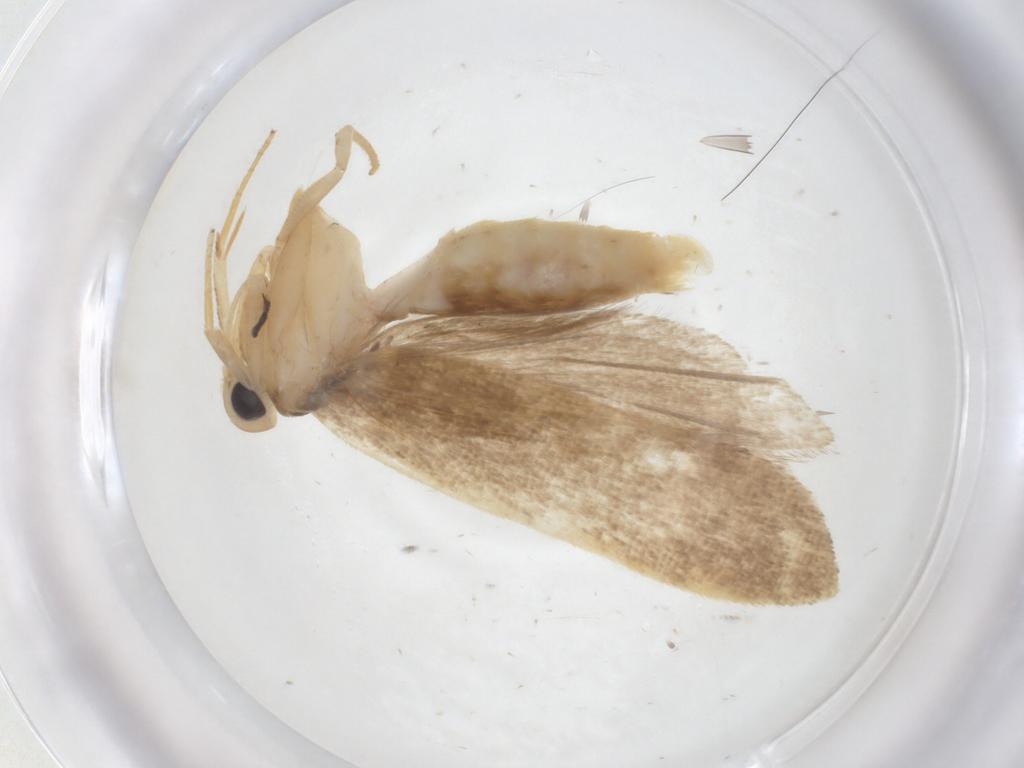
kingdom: Animalia
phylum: Arthropoda
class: Insecta
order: Lepidoptera
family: Gelechiidae
